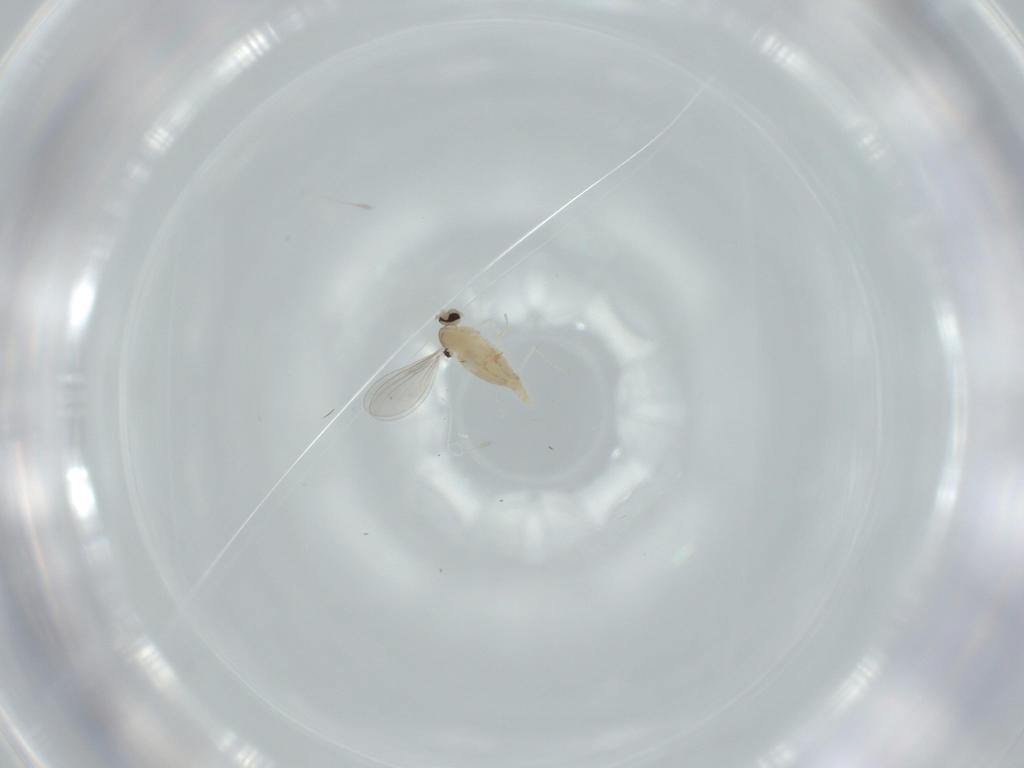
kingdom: Animalia
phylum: Arthropoda
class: Insecta
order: Diptera
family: Cecidomyiidae
